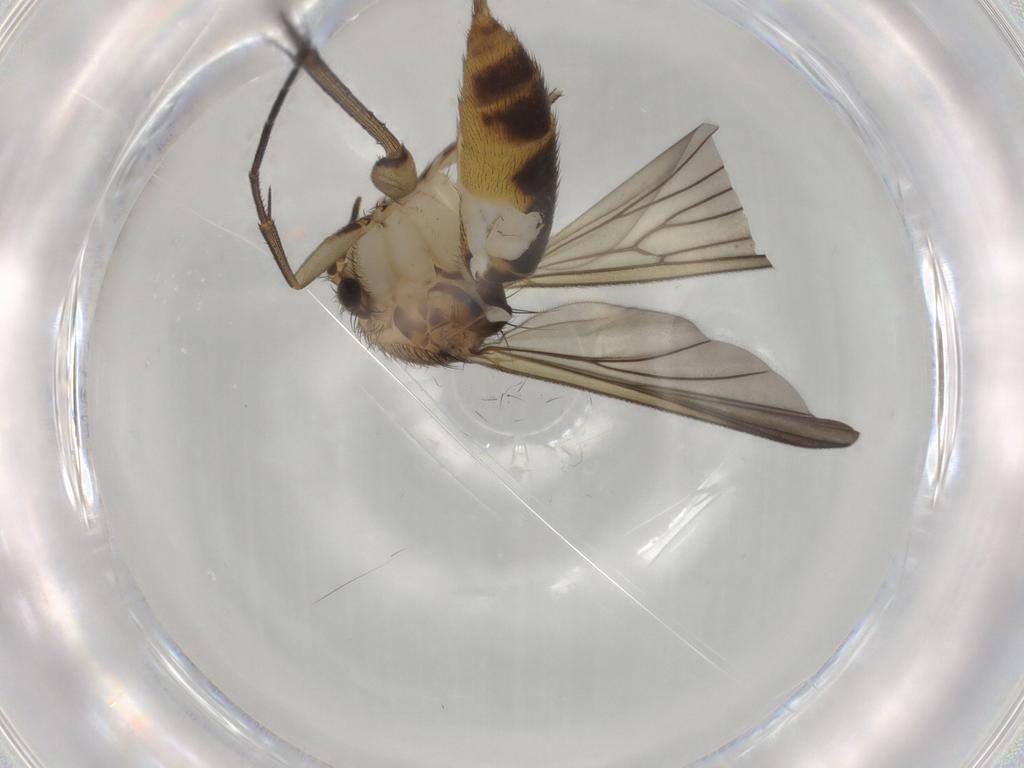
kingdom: Animalia
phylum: Arthropoda
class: Insecta
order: Diptera
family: Mycetophilidae
